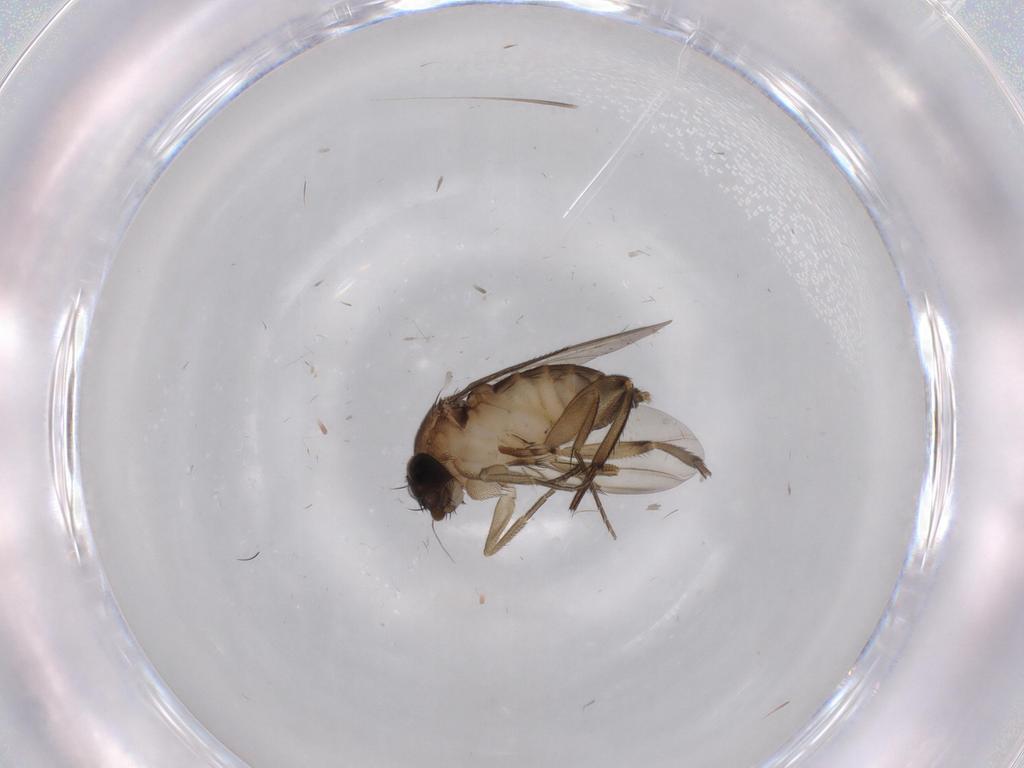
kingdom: Animalia
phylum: Arthropoda
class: Insecta
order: Diptera
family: Phoridae
